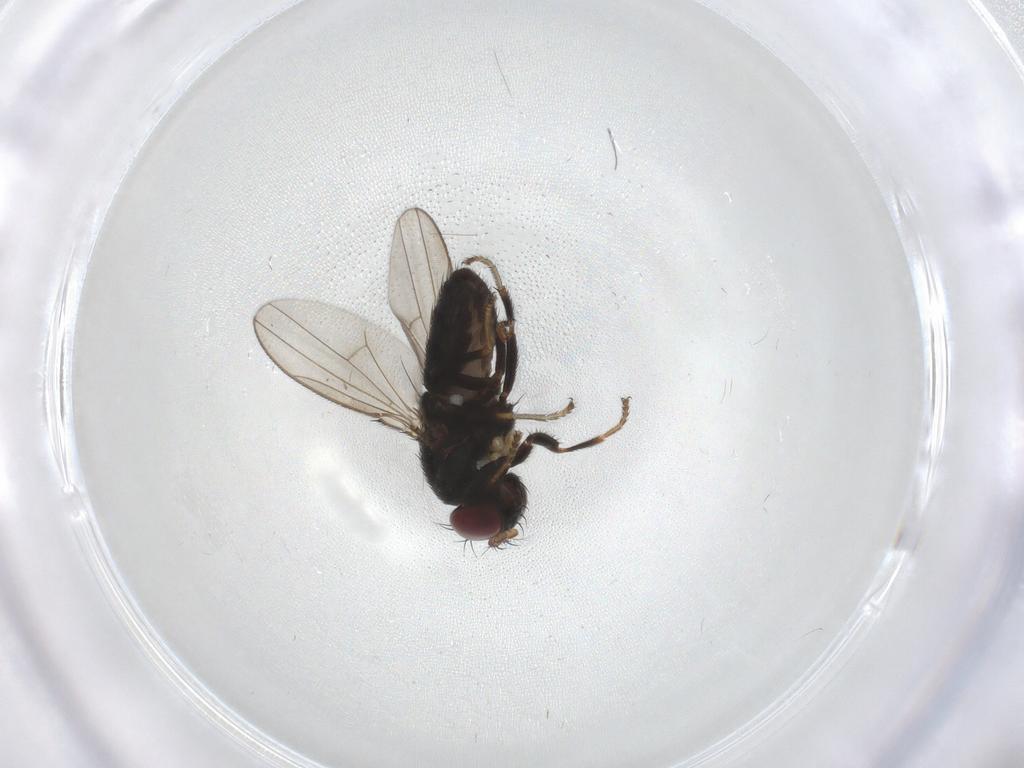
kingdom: Animalia
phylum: Arthropoda
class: Insecta
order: Diptera
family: Ephydridae
